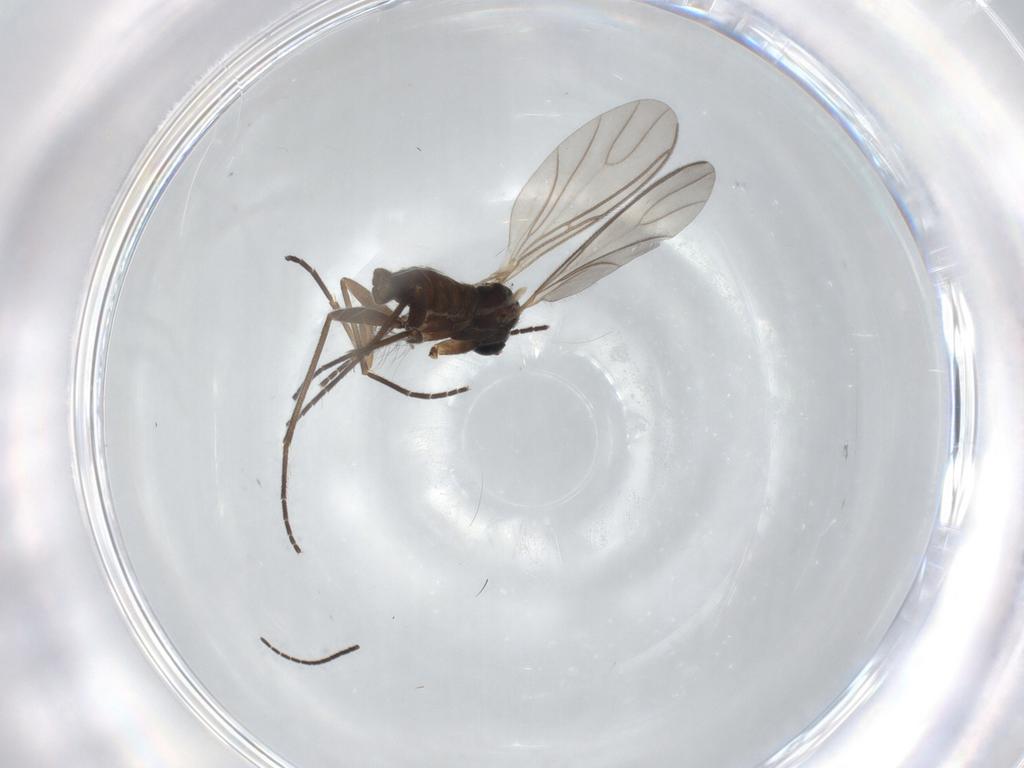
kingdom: Animalia
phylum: Arthropoda
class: Insecta
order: Diptera
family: Sciaridae
